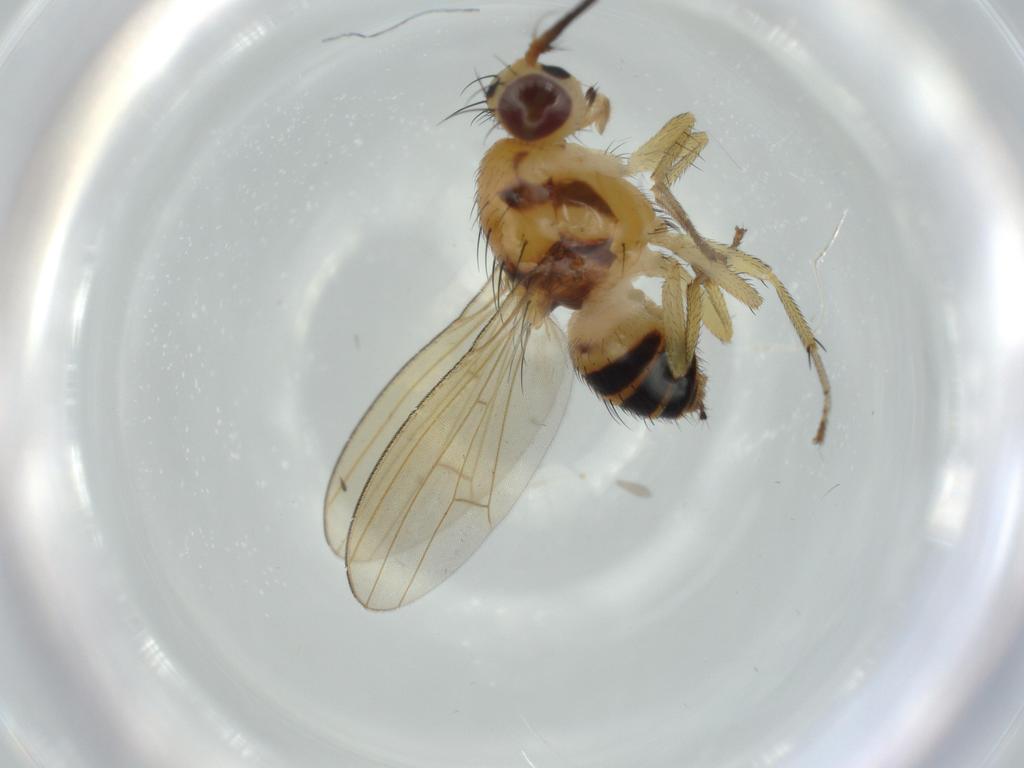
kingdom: Animalia
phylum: Arthropoda
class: Insecta
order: Diptera
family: Lauxaniidae
